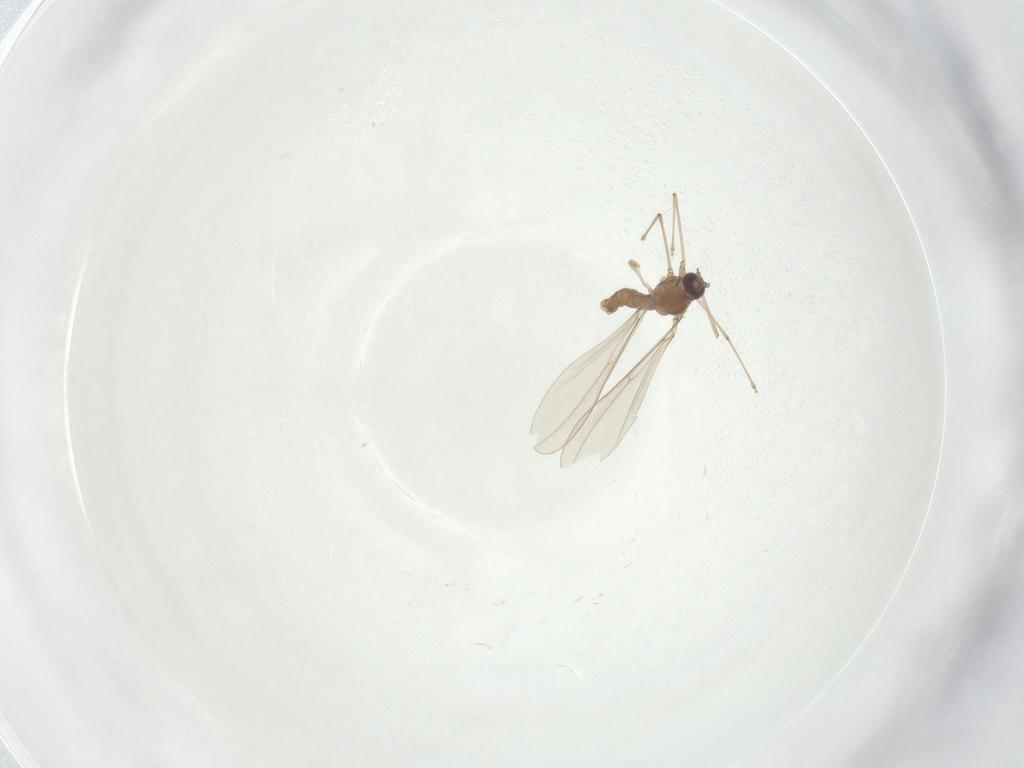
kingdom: Animalia
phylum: Arthropoda
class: Insecta
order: Diptera
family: Cecidomyiidae
